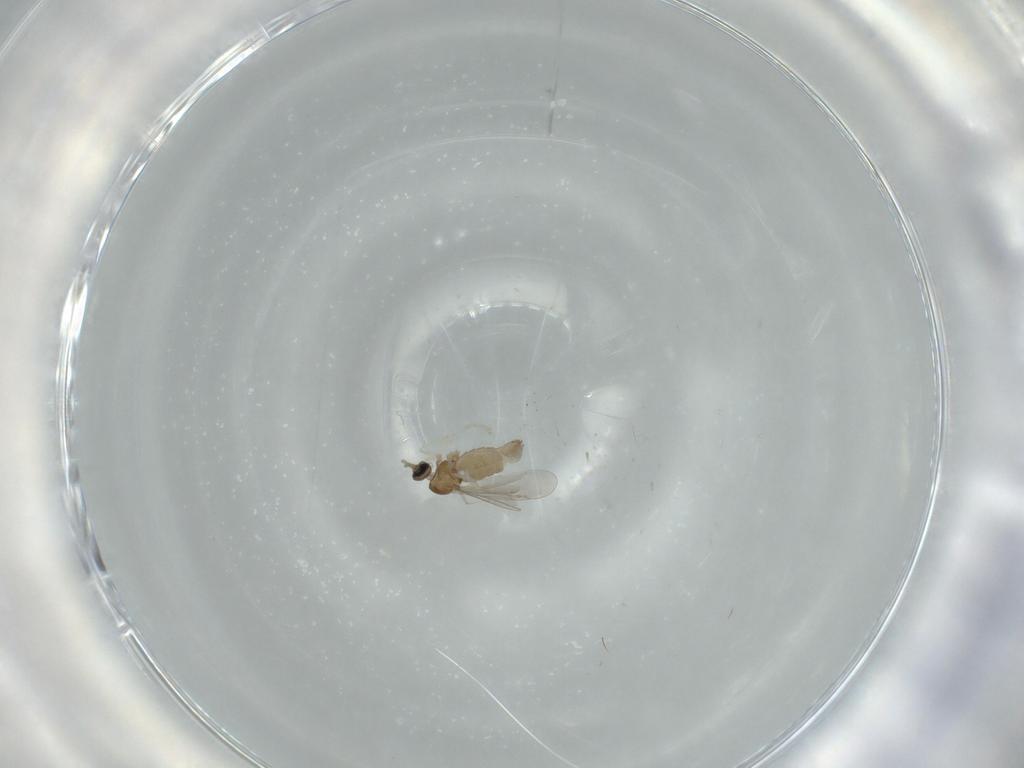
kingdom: Animalia
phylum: Arthropoda
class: Insecta
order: Diptera
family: Cecidomyiidae
